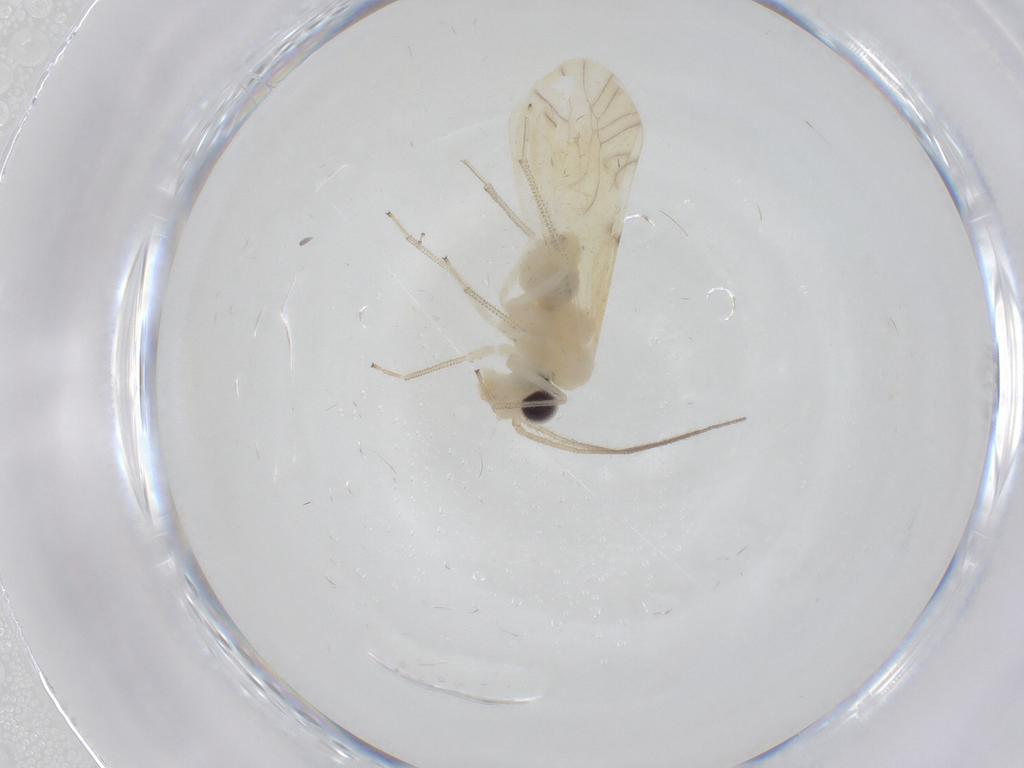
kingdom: Animalia
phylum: Arthropoda
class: Insecta
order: Psocodea
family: Caeciliusidae
